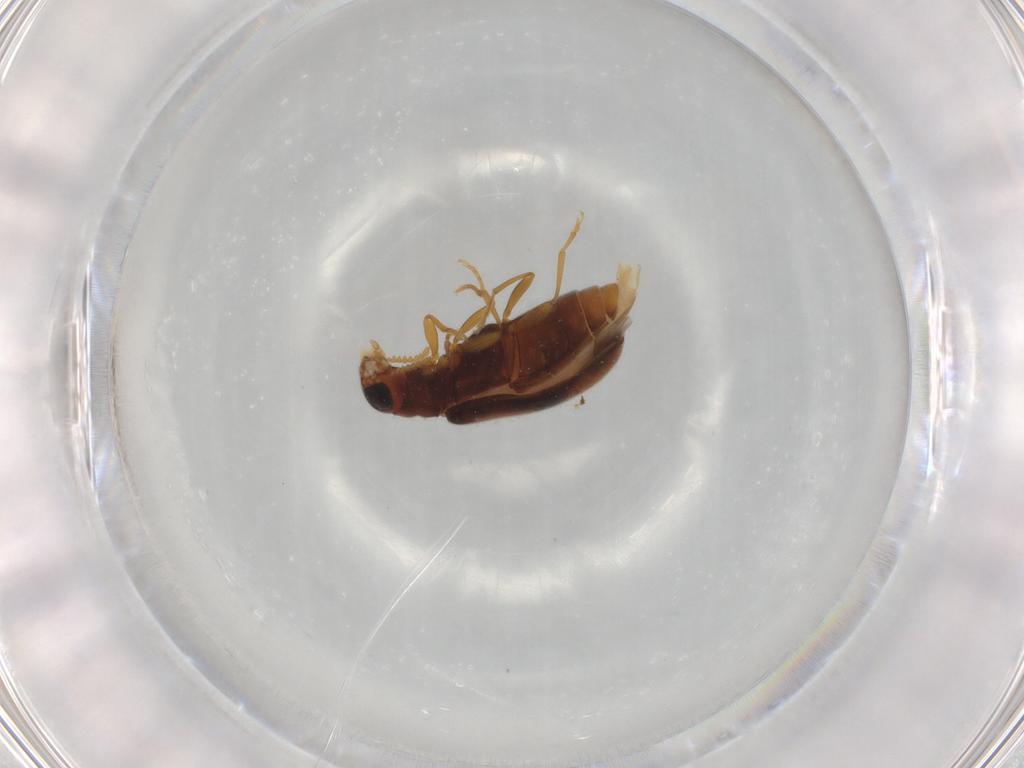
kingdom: Animalia
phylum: Arthropoda
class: Insecta
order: Coleoptera
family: Mycteridae
